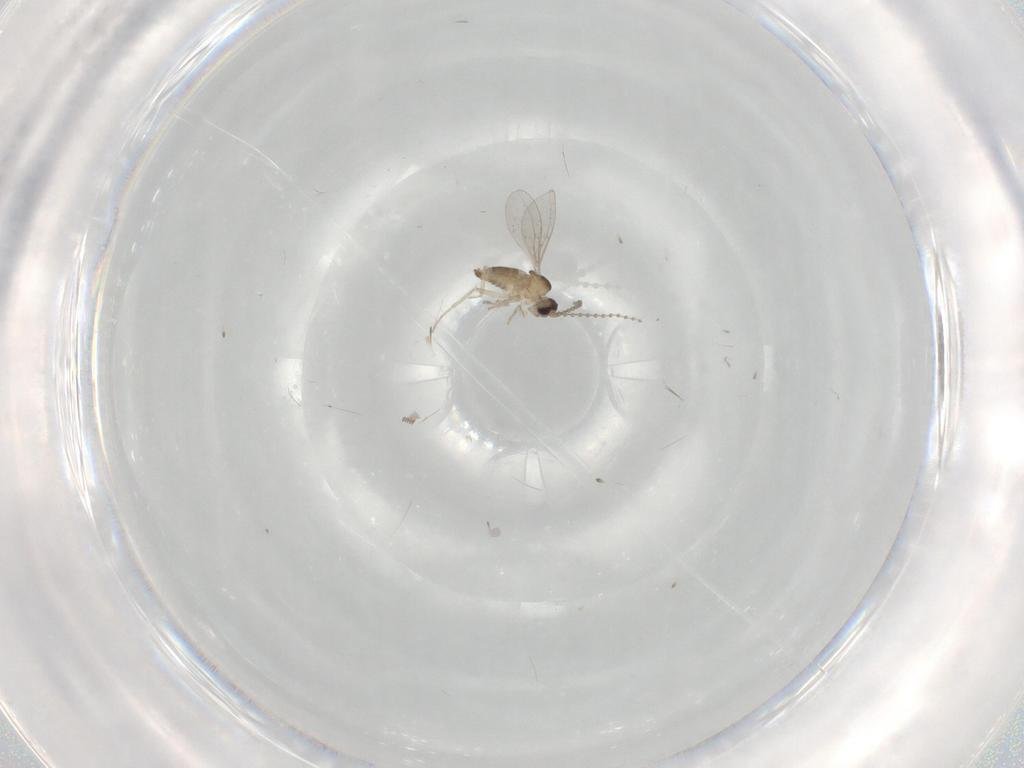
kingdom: Animalia
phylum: Arthropoda
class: Insecta
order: Diptera
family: Cecidomyiidae
